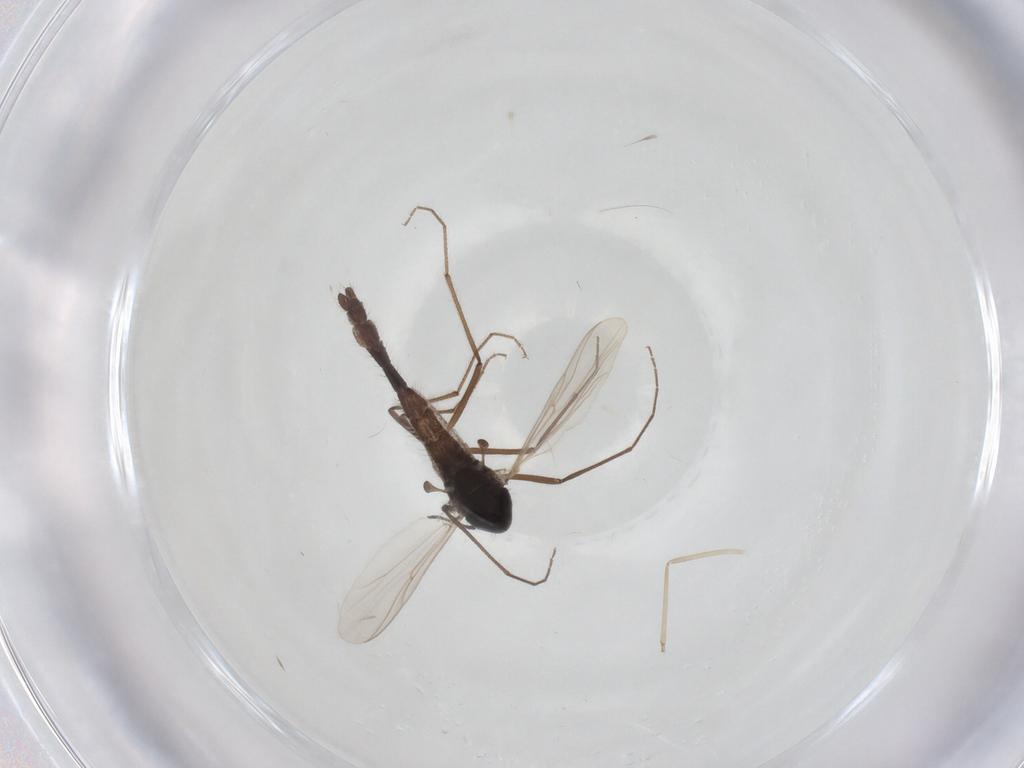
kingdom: Animalia
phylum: Arthropoda
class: Insecta
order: Diptera
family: Chironomidae
